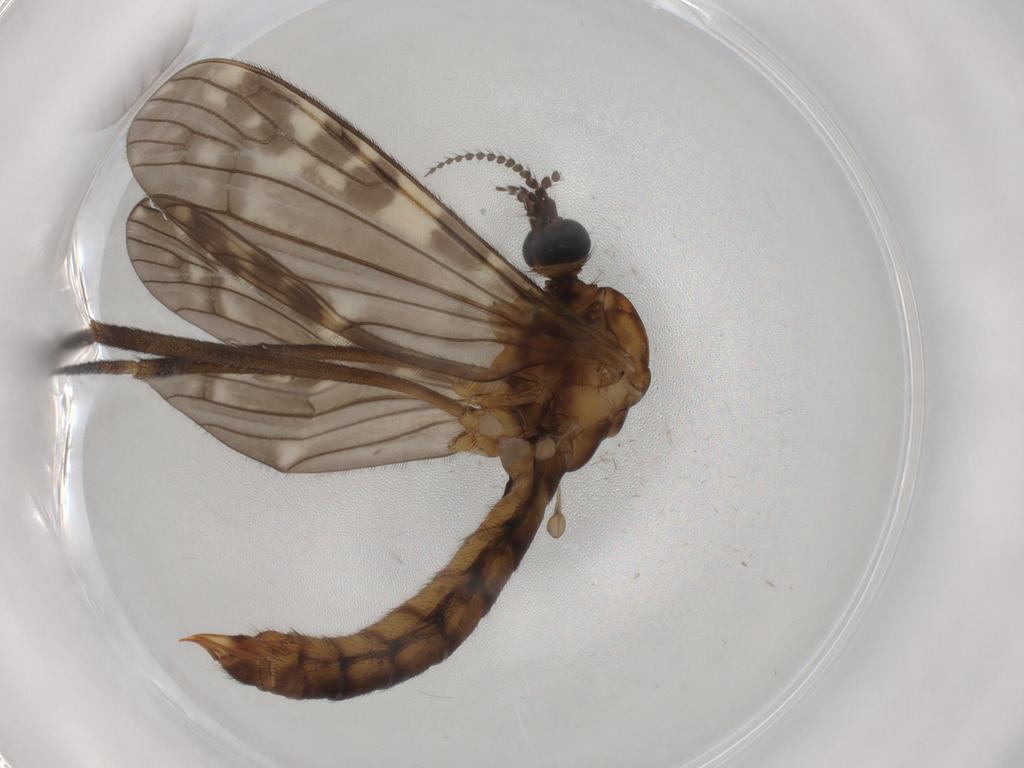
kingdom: Animalia
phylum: Arthropoda
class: Insecta
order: Diptera
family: Limoniidae
